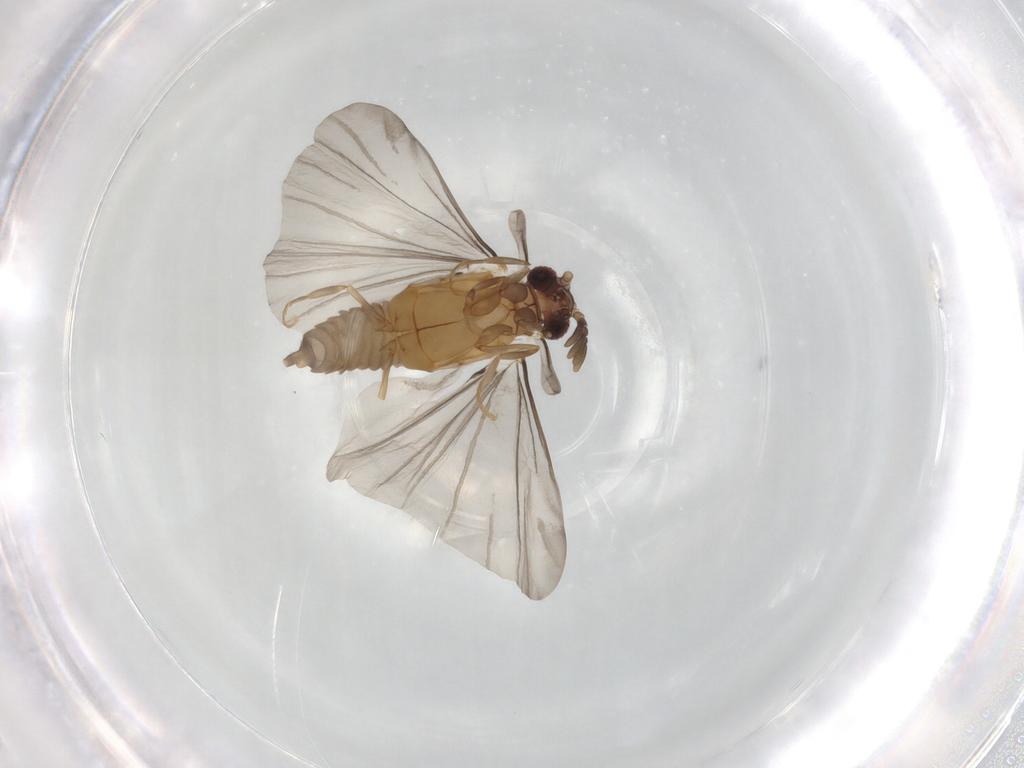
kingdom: Animalia
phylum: Arthropoda
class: Insecta
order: Strepsiptera
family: Mengenillidae
